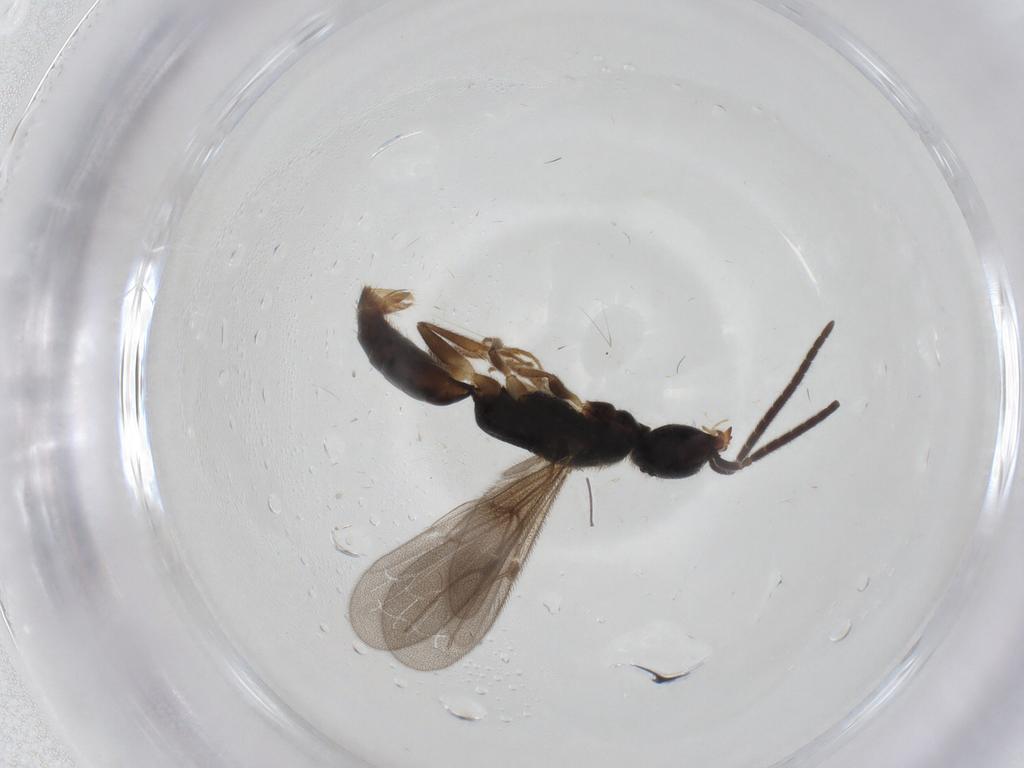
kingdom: Animalia
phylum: Arthropoda
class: Insecta
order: Hymenoptera
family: Bethylidae
